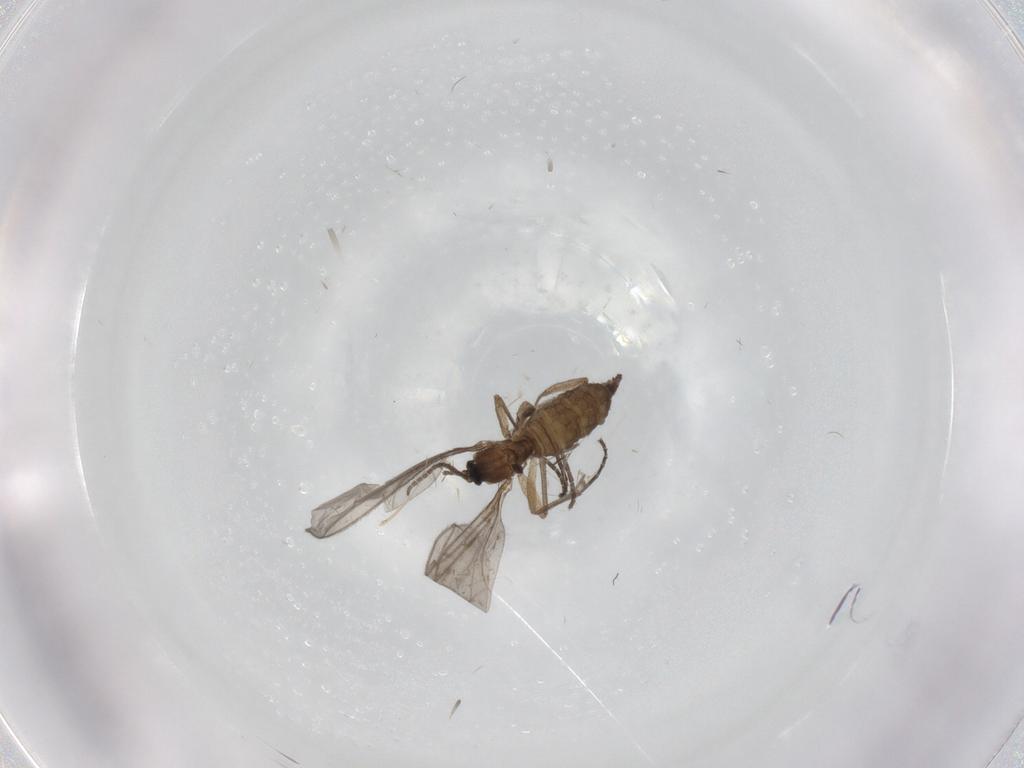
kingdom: Animalia
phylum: Arthropoda
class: Insecta
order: Diptera
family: Sciaridae
